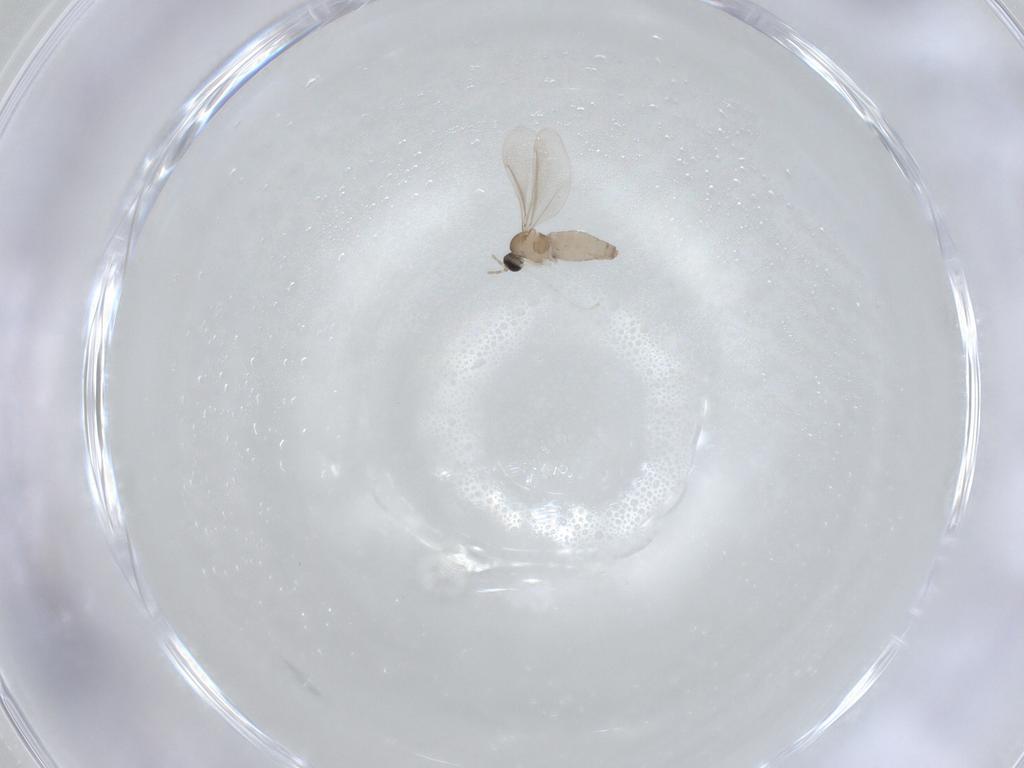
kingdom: Animalia
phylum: Arthropoda
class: Insecta
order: Diptera
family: Cecidomyiidae
